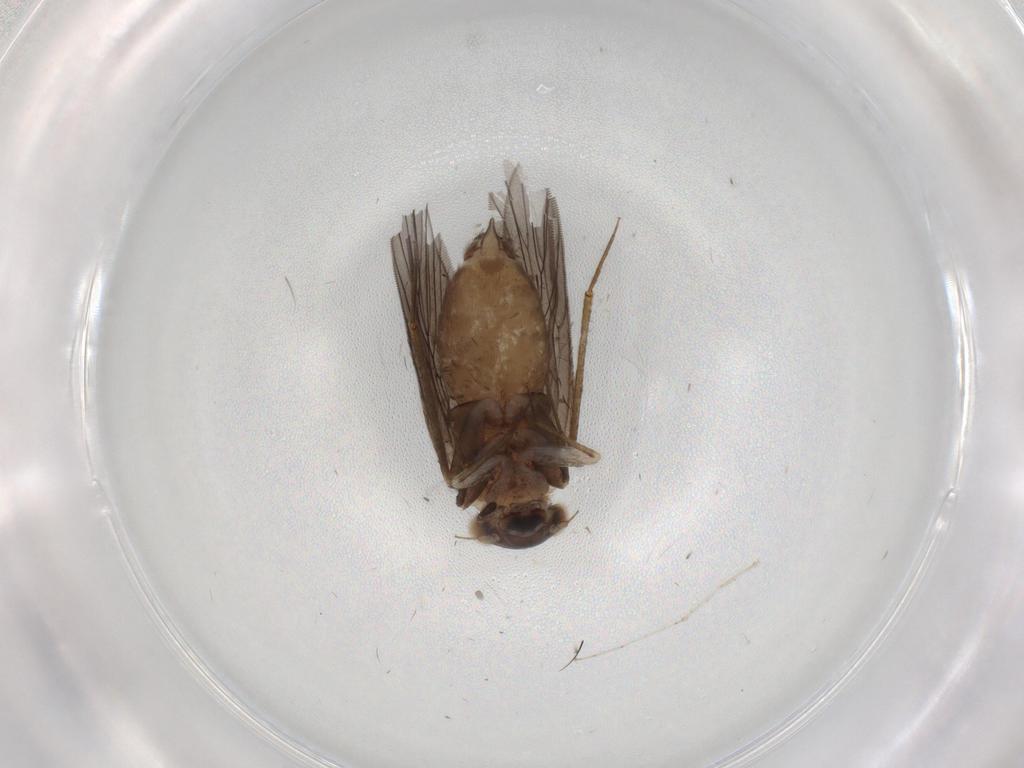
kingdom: Animalia
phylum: Arthropoda
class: Insecta
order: Psocodea
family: Lepidopsocidae
